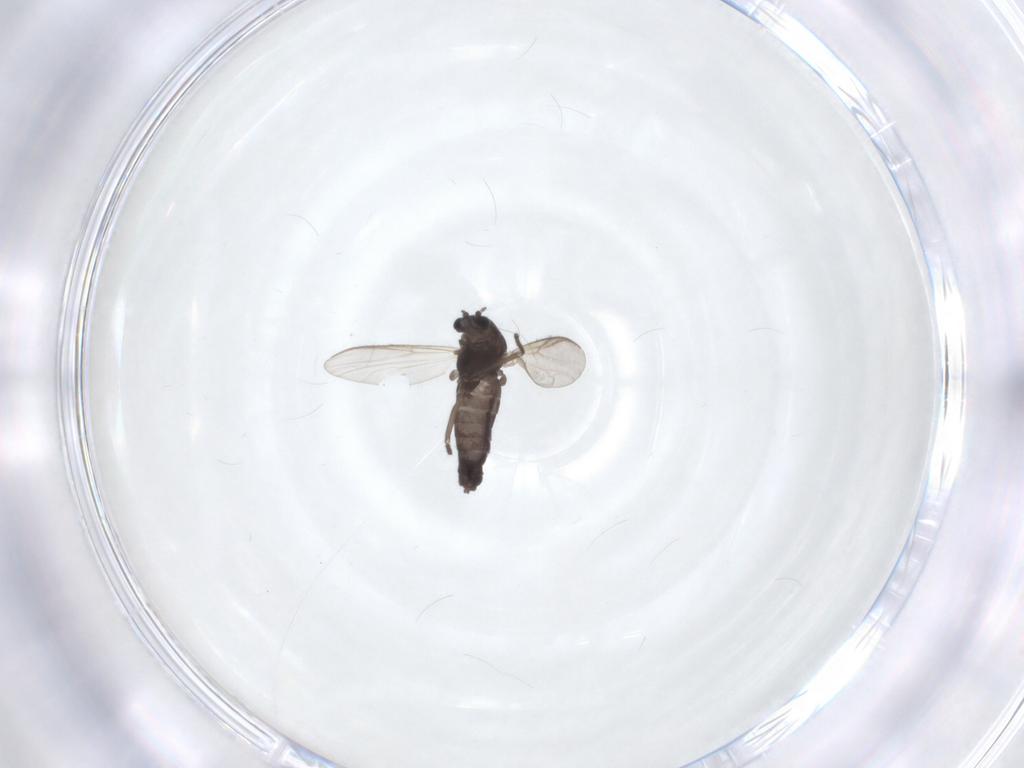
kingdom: Animalia
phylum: Arthropoda
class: Insecta
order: Diptera
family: Chironomidae
